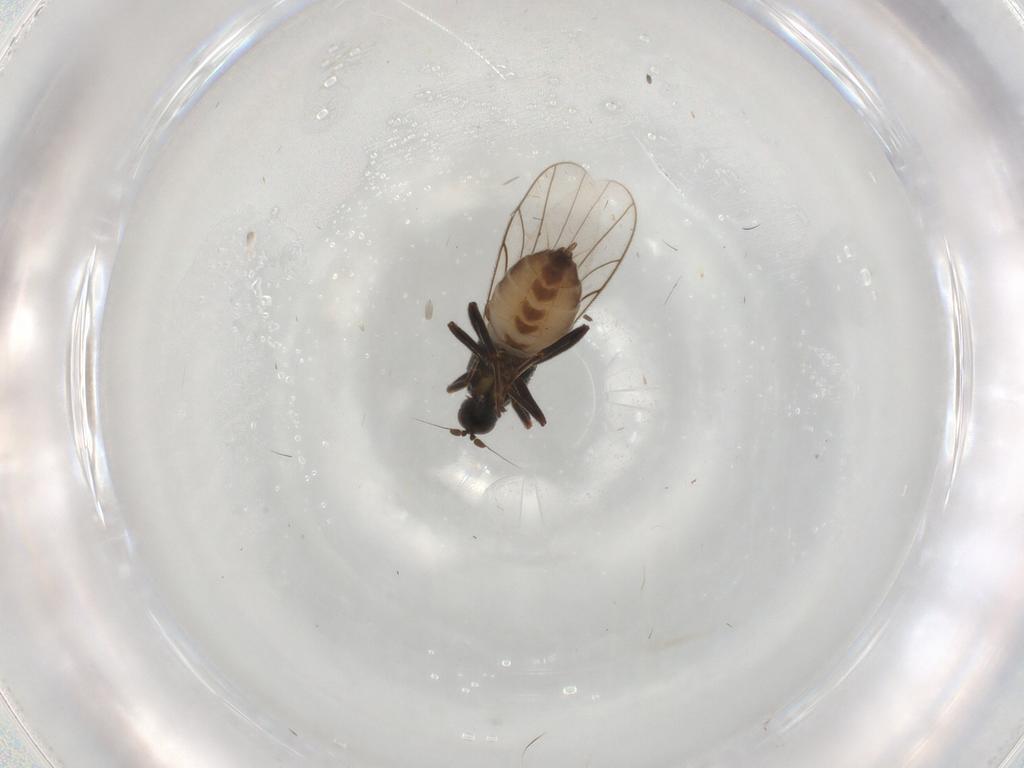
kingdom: Animalia
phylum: Arthropoda
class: Insecta
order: Diptera
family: Hybotidae
